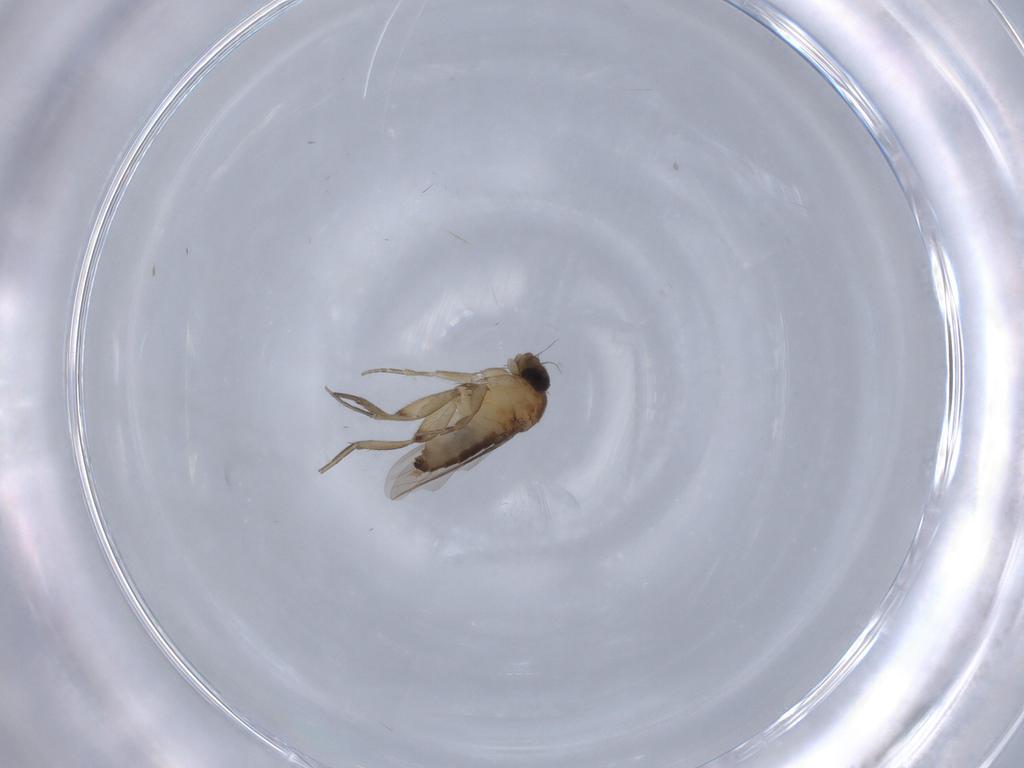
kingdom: Animalia
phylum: Arthropoda
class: Insecta
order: Diptera
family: Phoridae
